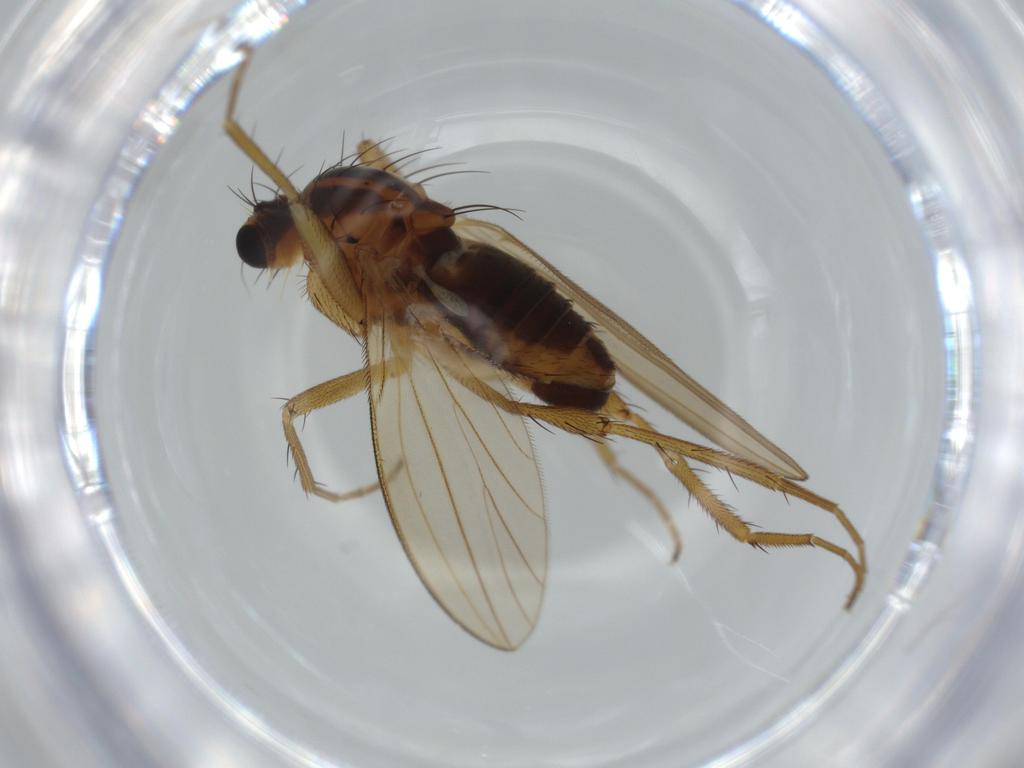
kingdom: Animalia
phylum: Arthropoda
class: Insecta
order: Diptera
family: Lonchopteridae
